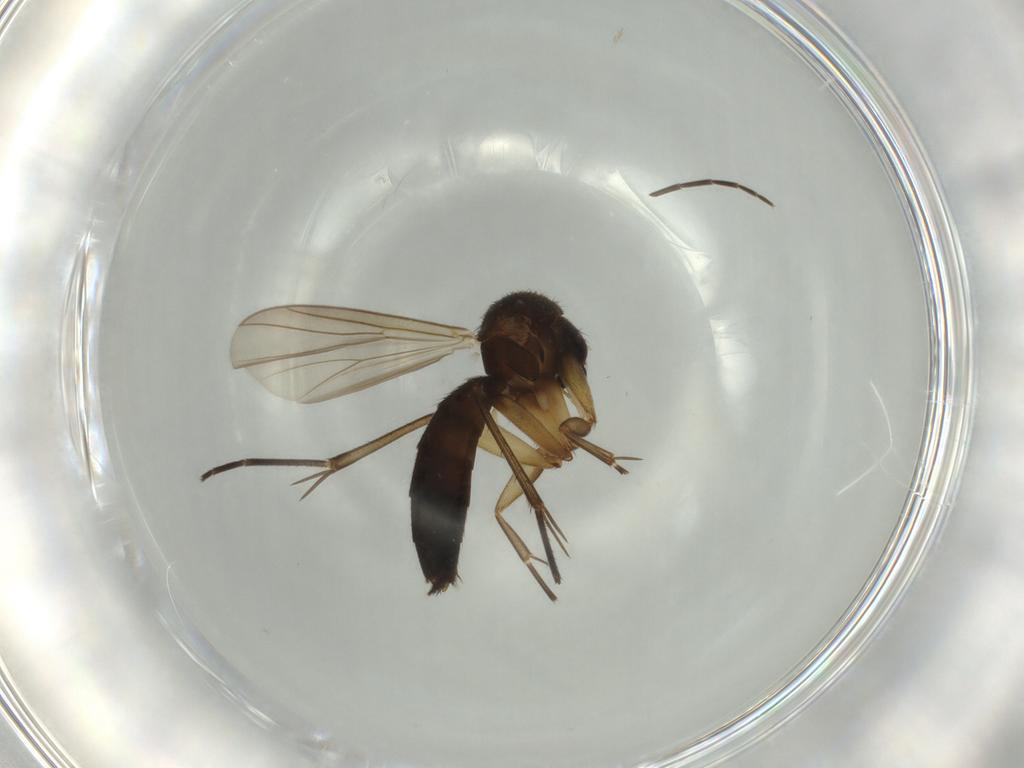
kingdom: Animalia
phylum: Arthropoda
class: Insecta
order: Diptera
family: Mycetophilidae
